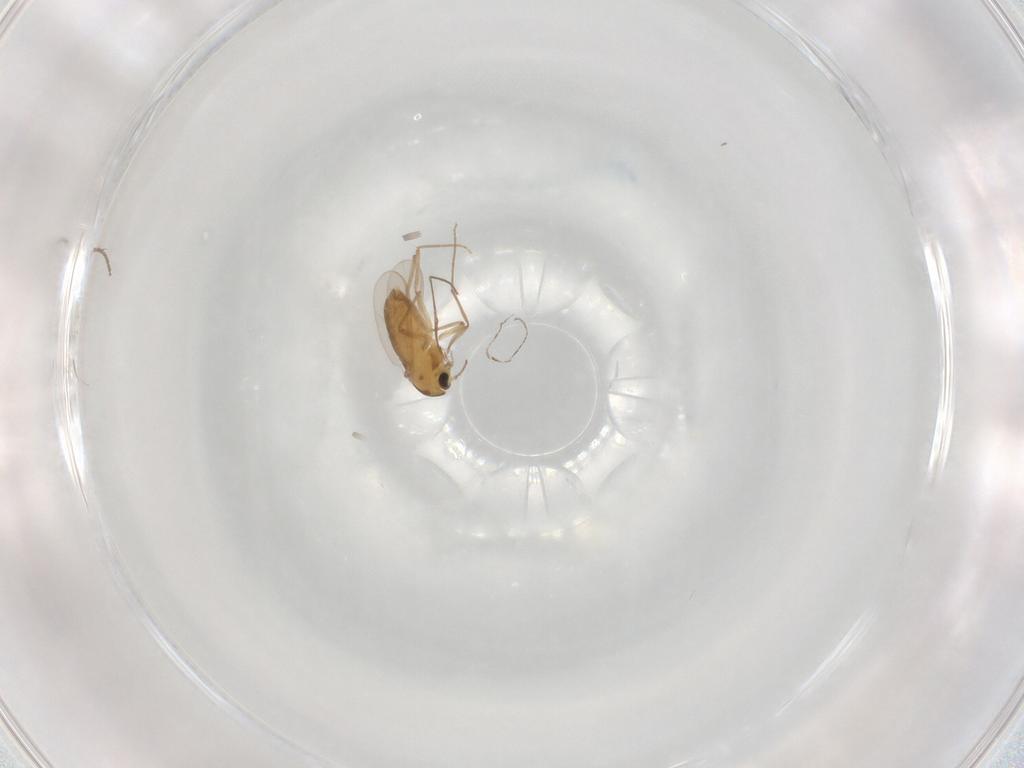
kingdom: Animalia
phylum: Arthropoda
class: Insecta
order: Diptera
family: Chironomidae
